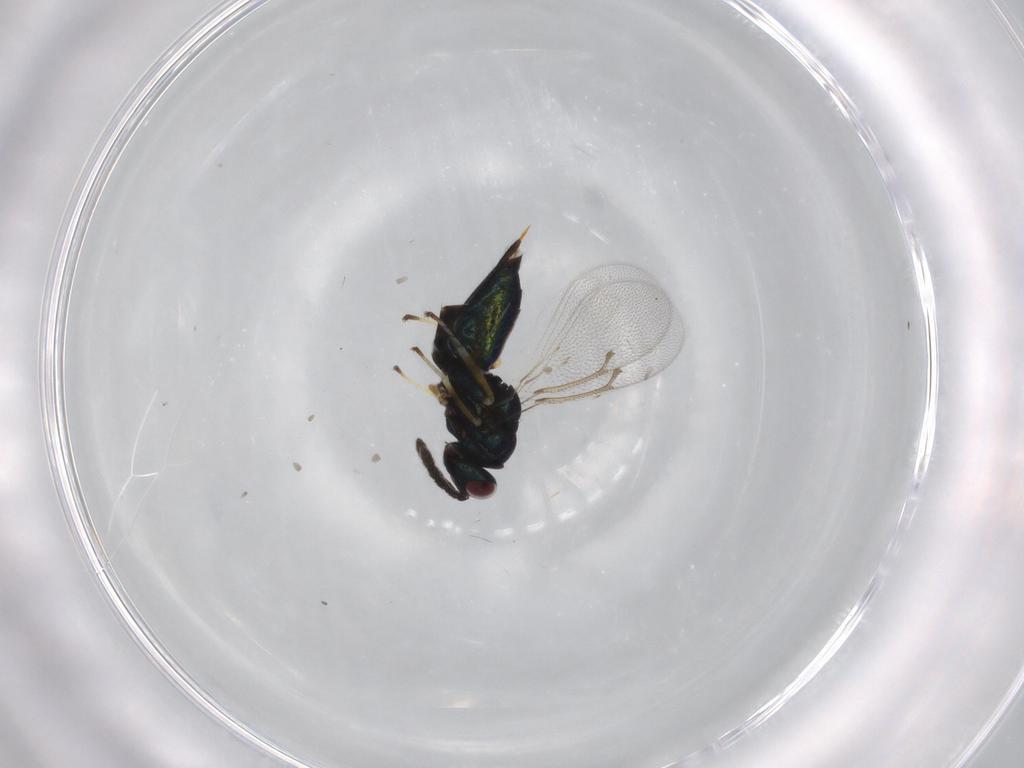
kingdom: Animalia
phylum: Arthropoda
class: Insecta
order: Hymenoptera
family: Eulophidae
